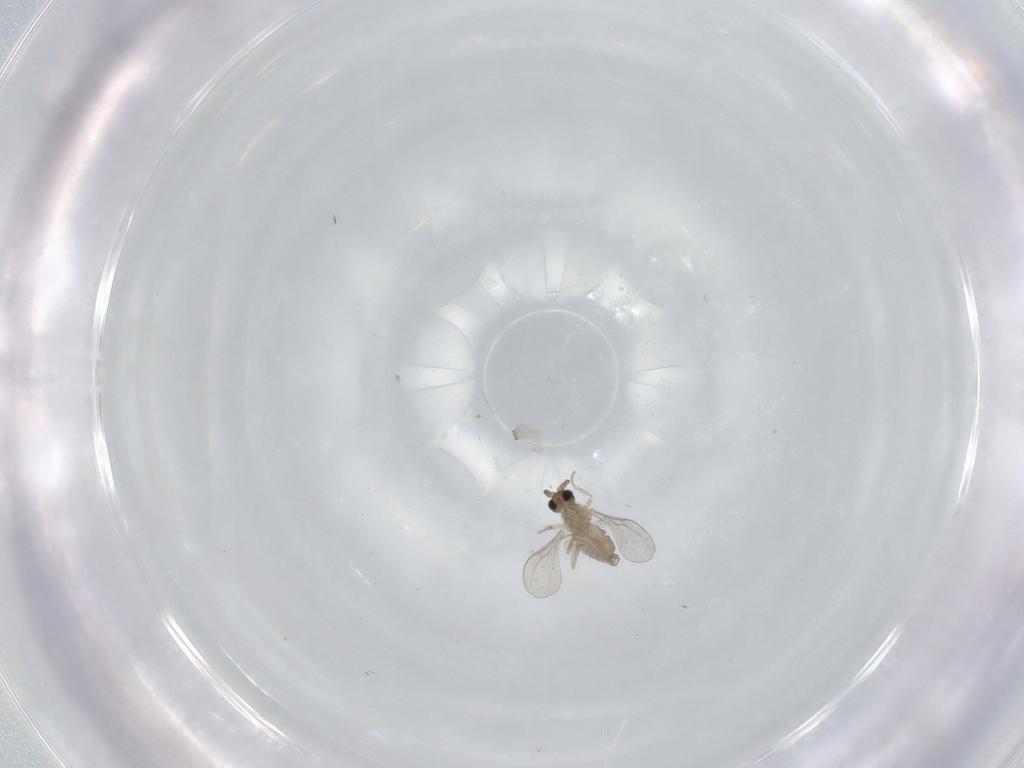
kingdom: Animalia
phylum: Arthropoda
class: Insecta
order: Diptera
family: Cecidomyiidae
